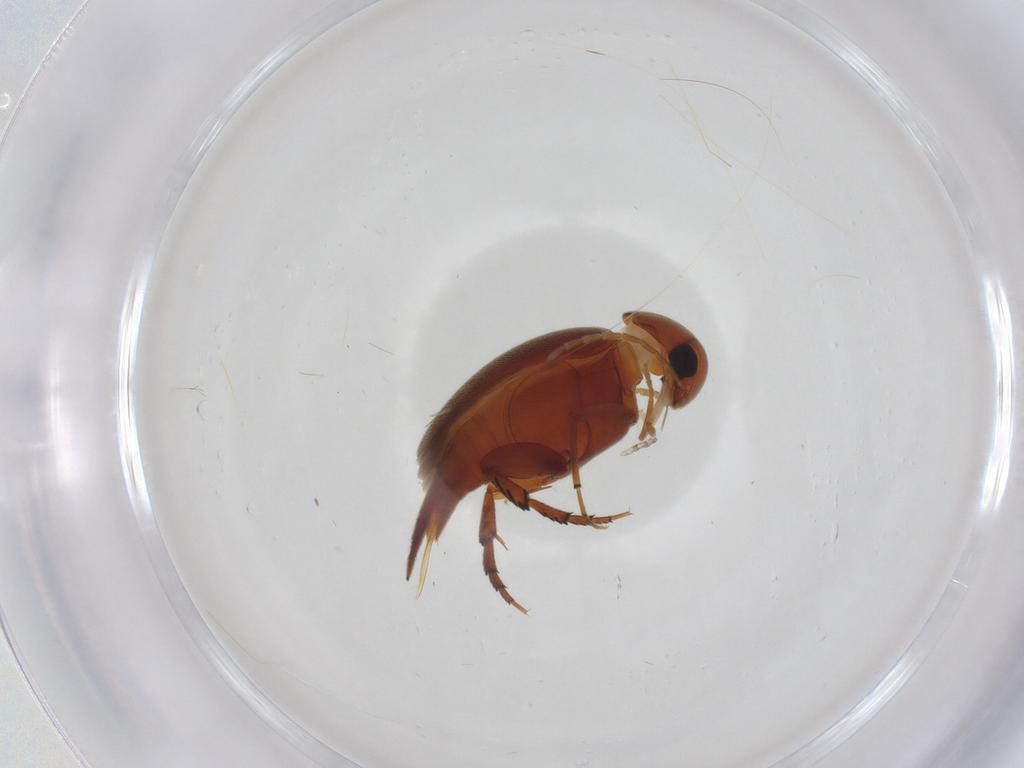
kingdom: Animalia
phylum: Arthropoda
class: Insecta
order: Coleoptera
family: Mordellidae
